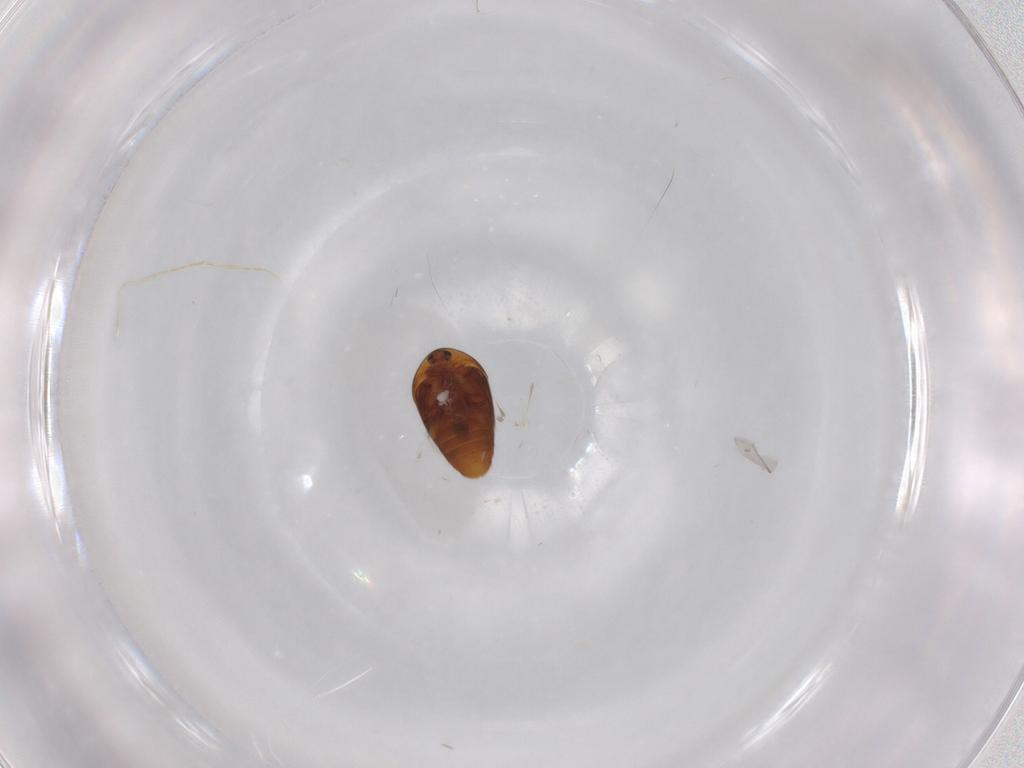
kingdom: Animalia
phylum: Arthropoda
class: Insecta
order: Coleoptera
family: Corylophidae
